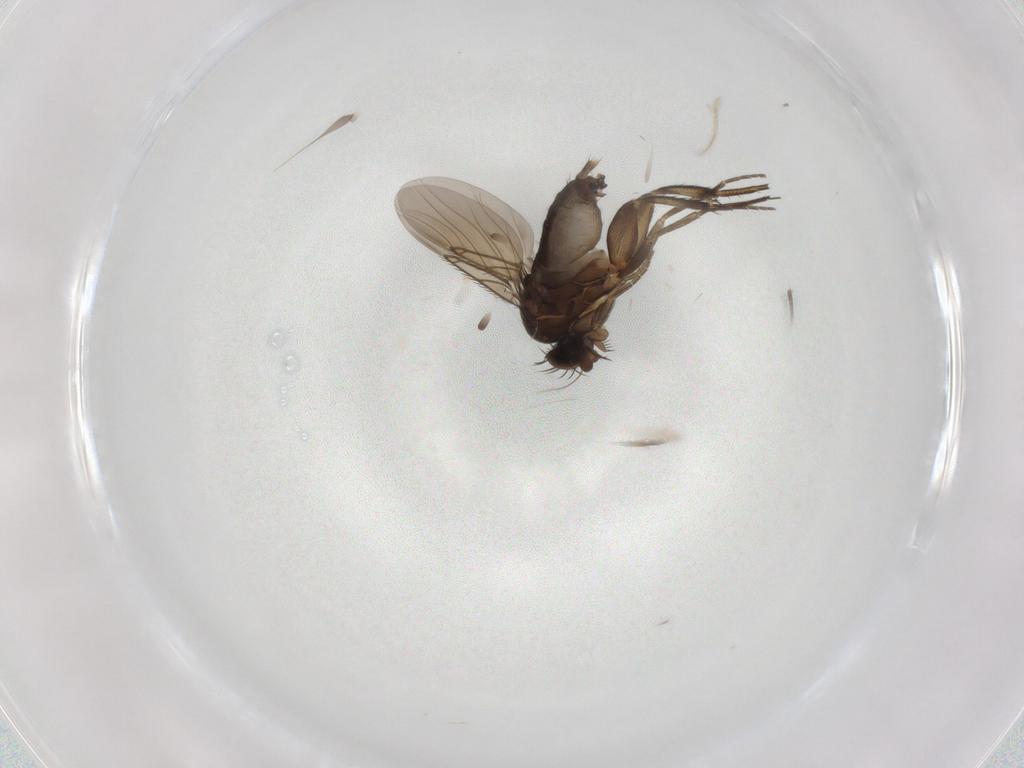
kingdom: Animalia
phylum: Arthropoda
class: Insecta
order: Diptera
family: Phoridae
